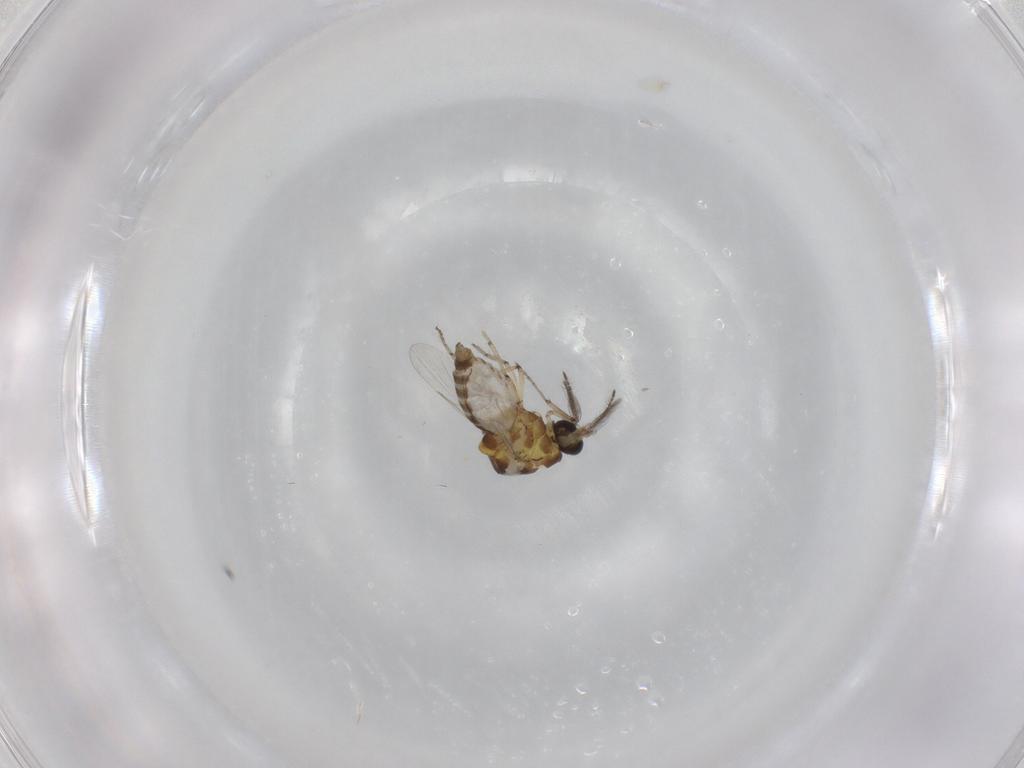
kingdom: Animalia
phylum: Arthropoda
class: Insecta
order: Diptera
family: Ceratopogonidae
